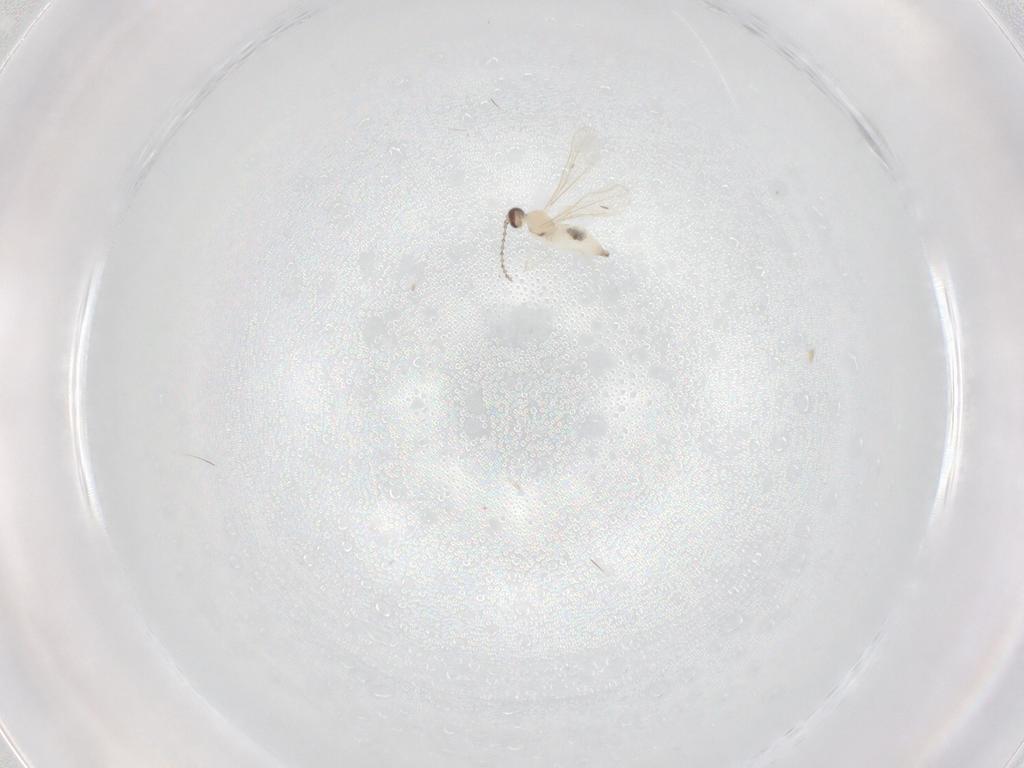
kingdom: Animalia
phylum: Arthropoda
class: Insecta
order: Diptera
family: Cecidomyiidae
